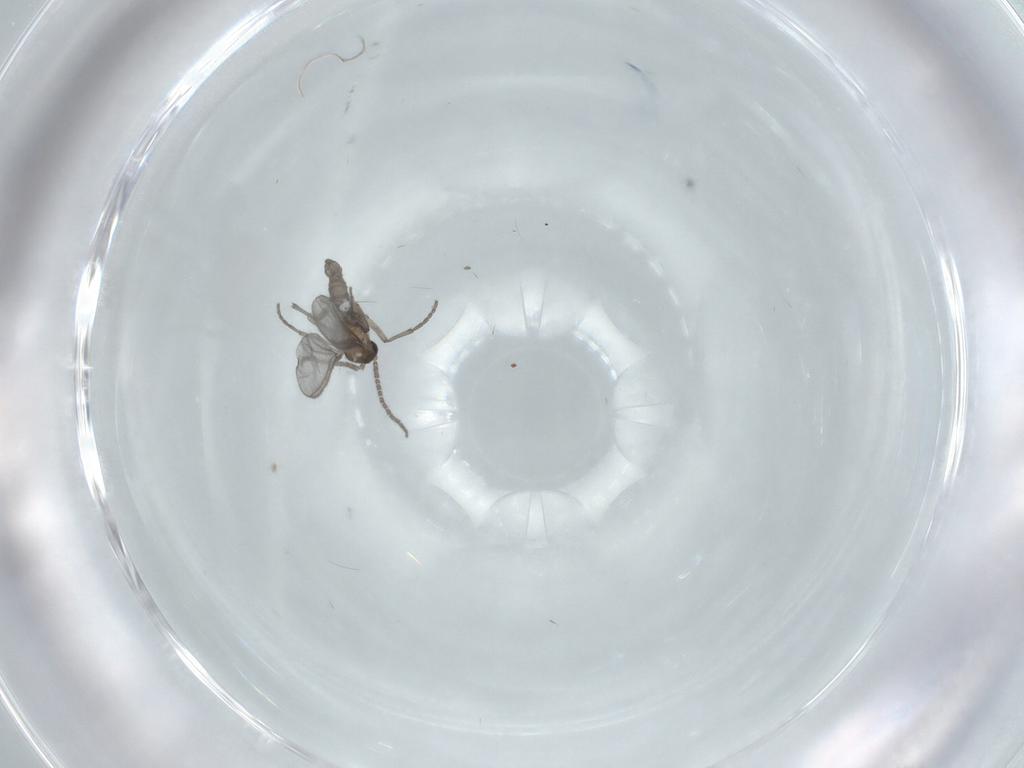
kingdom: Animalia
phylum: Arthropoda
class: Insecta
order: Diptera
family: Sciaridae
